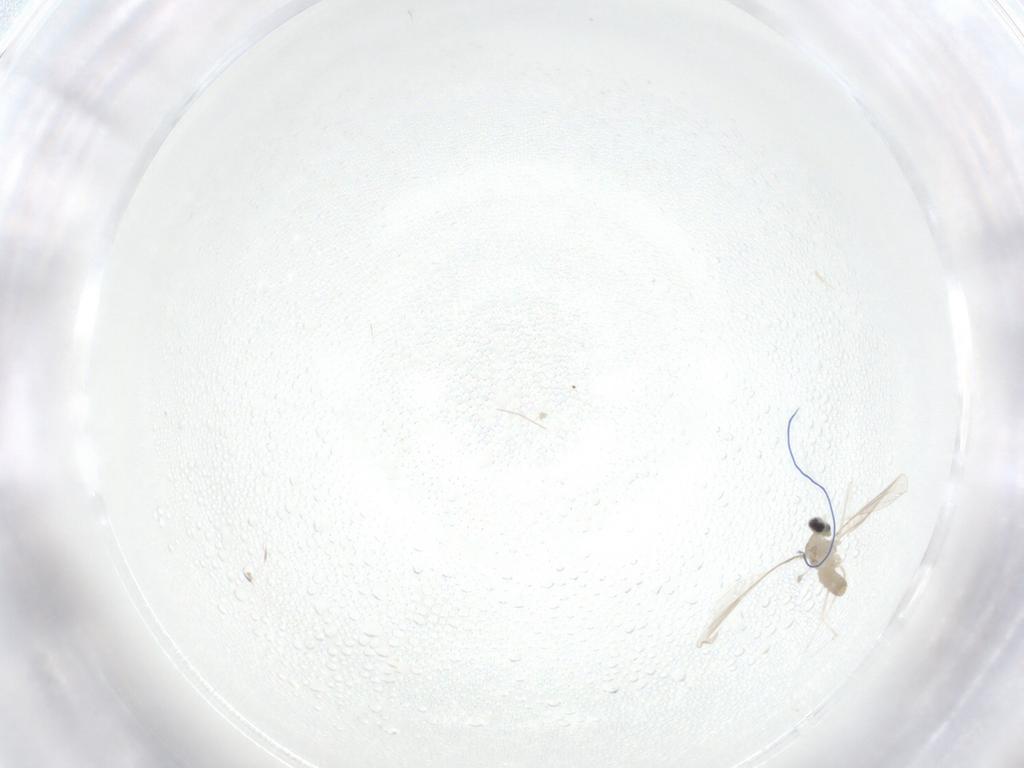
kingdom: Animalia
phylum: Arthropoda
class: Insecta
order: Diptera
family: Cecidomyiidae
